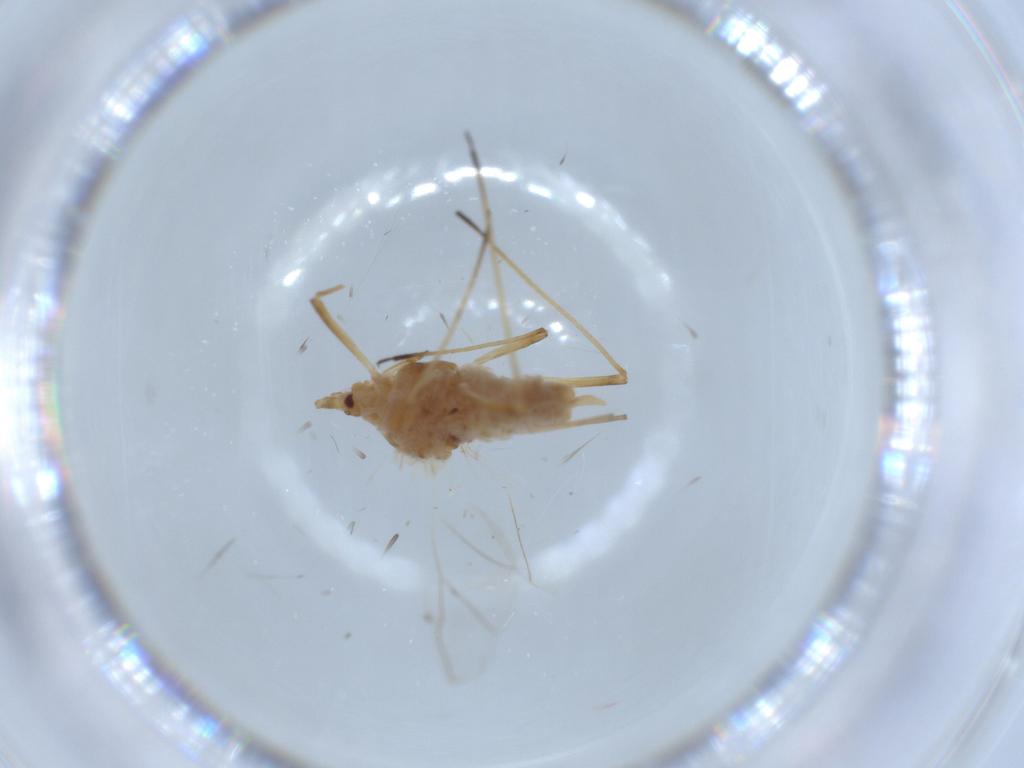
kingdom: Animalia
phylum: Arthropoda
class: Insecta
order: Hemiptera
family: Aphididae
